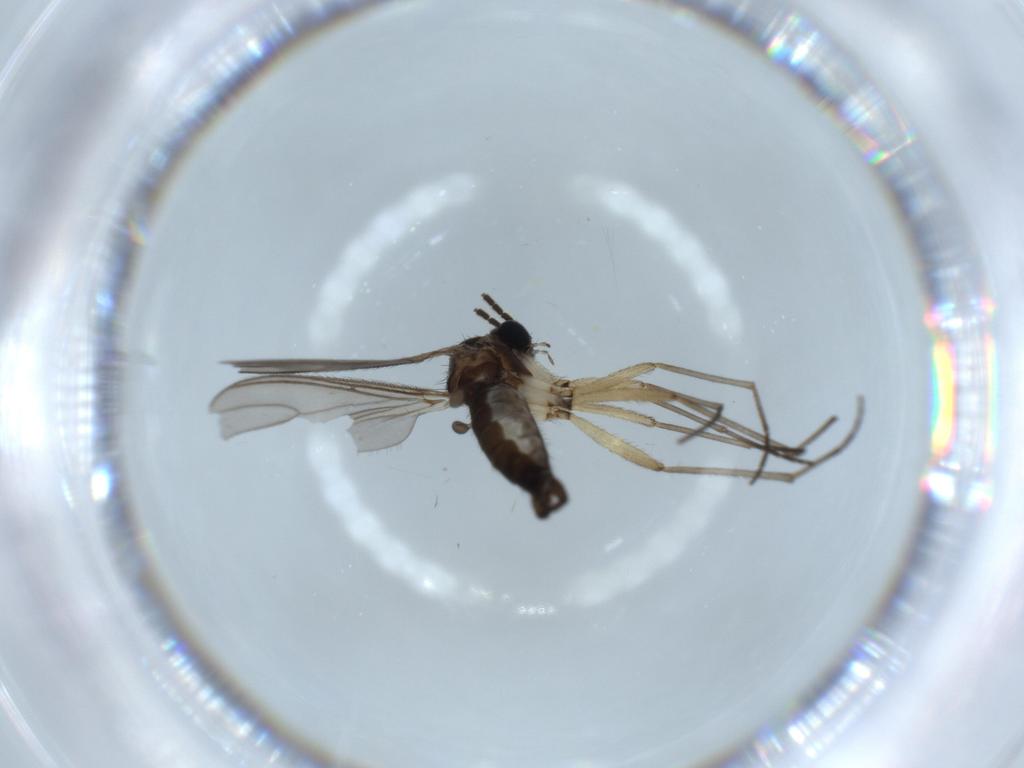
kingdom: Animalia
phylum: Arthropoda
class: Insecta
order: Diptera
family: Sciaridae
